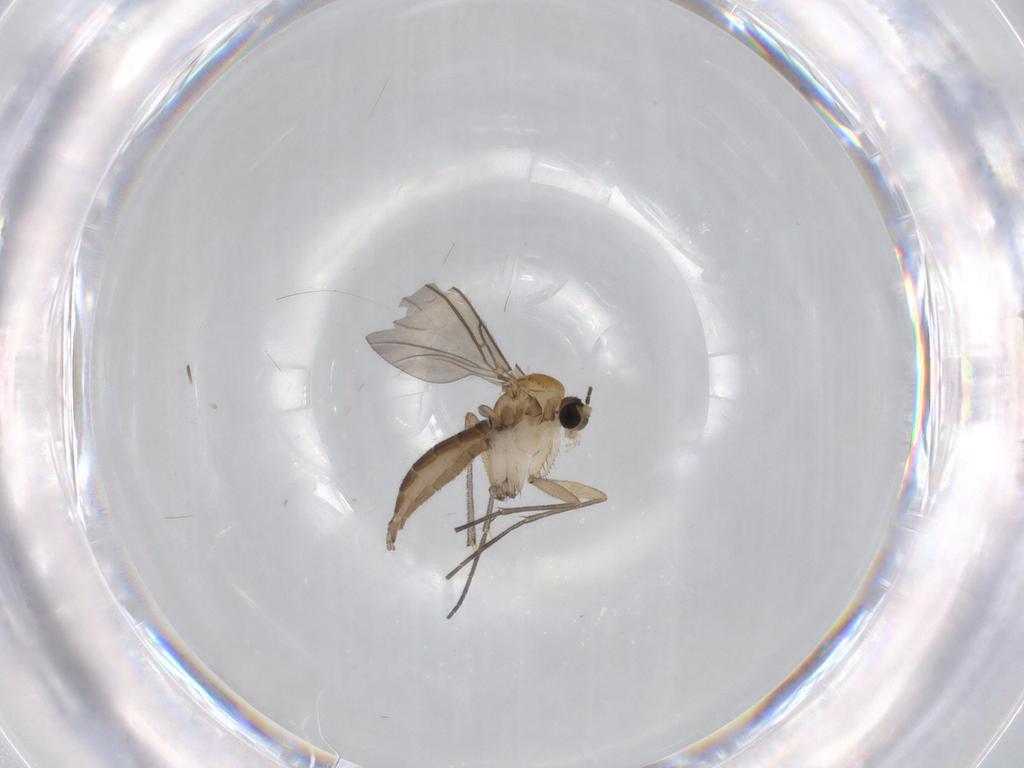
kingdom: Animalia
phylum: Arthropoda
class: Insecta
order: Diptera
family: Sciaridae
